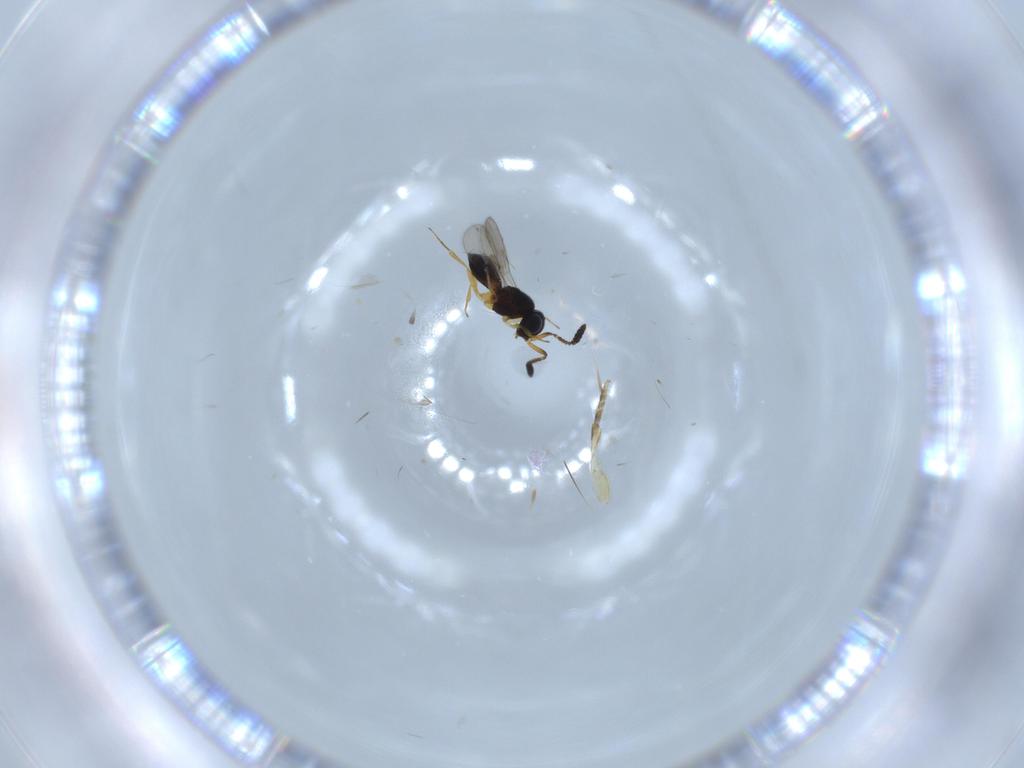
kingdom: Animalia
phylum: Arthropoda
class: Insecta
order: Hymenoptera
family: Scelionidae
